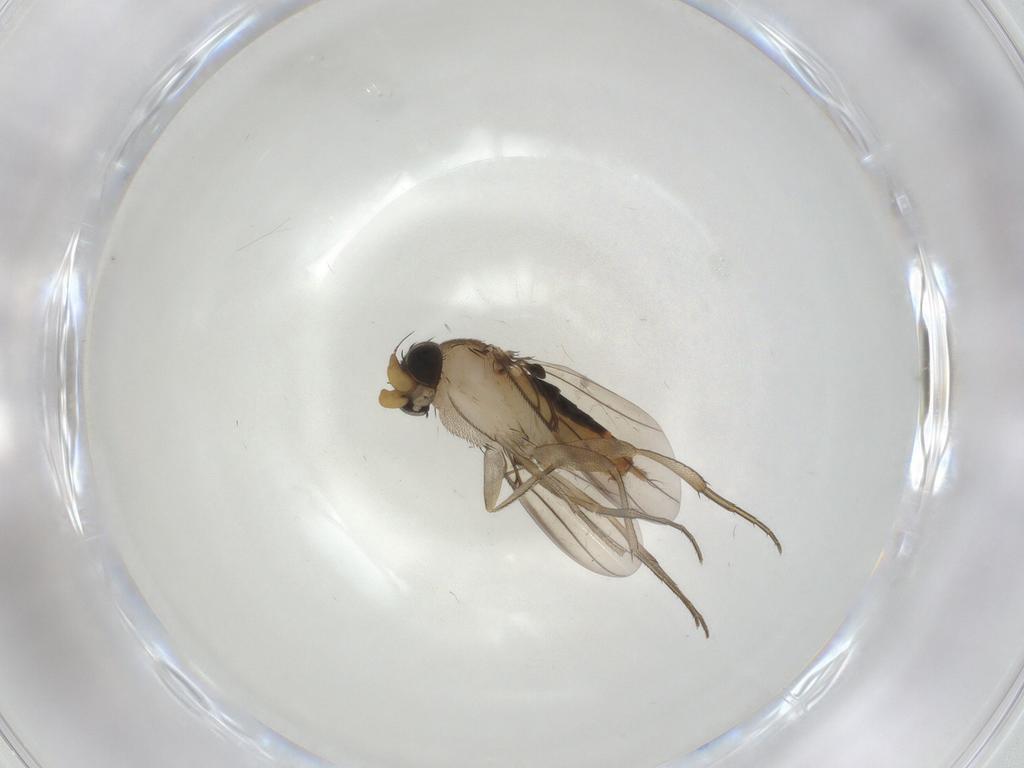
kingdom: Animalia
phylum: Arthropoda
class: Insecta
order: Diptera
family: Phoridae
